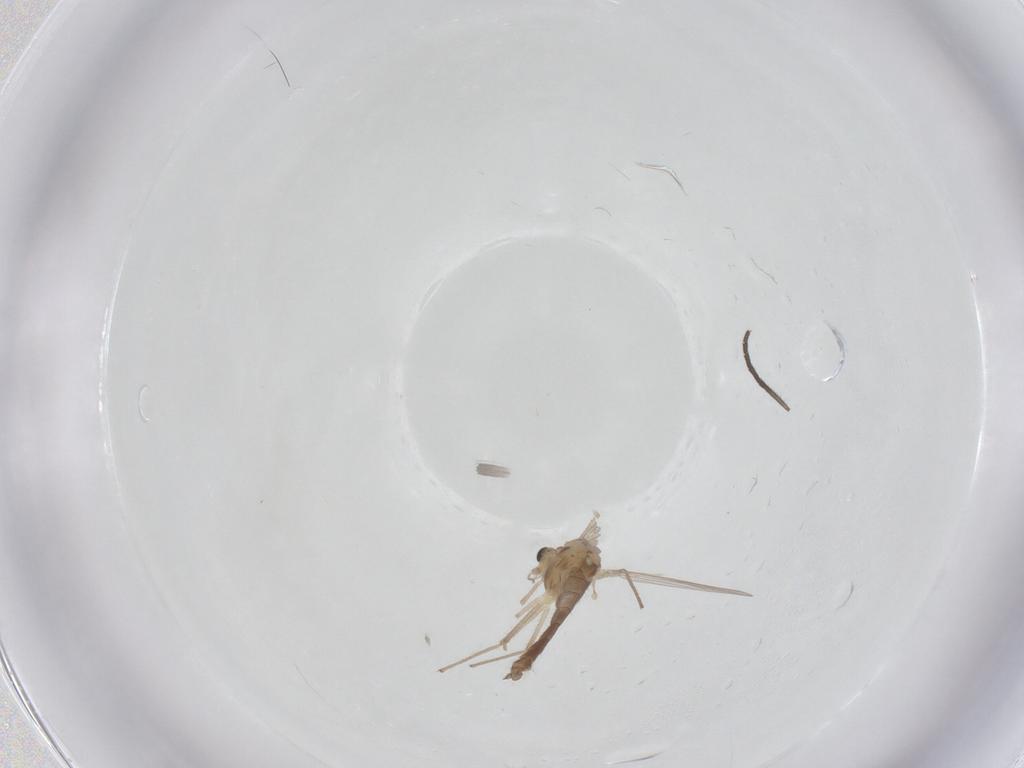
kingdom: Animalia
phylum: Arthropoda
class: Insecta
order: Diptera
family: Chironomidae
